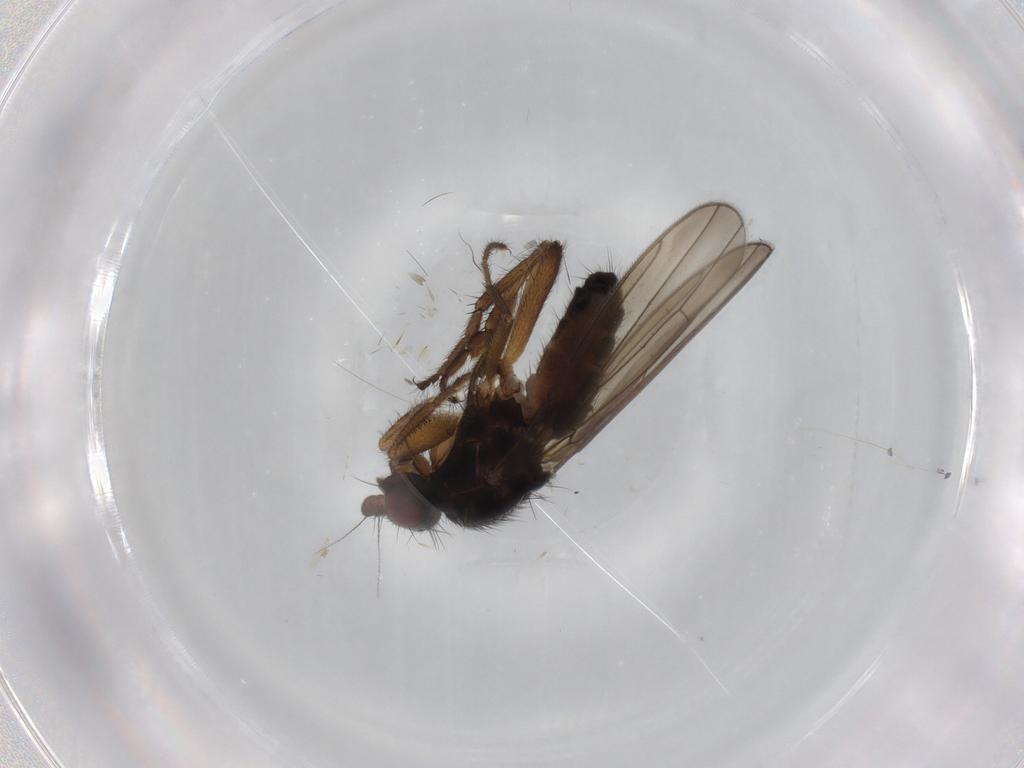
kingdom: Animalia
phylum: Arthropoda
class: Insecta
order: Diptera
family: Sphaeroceridae
